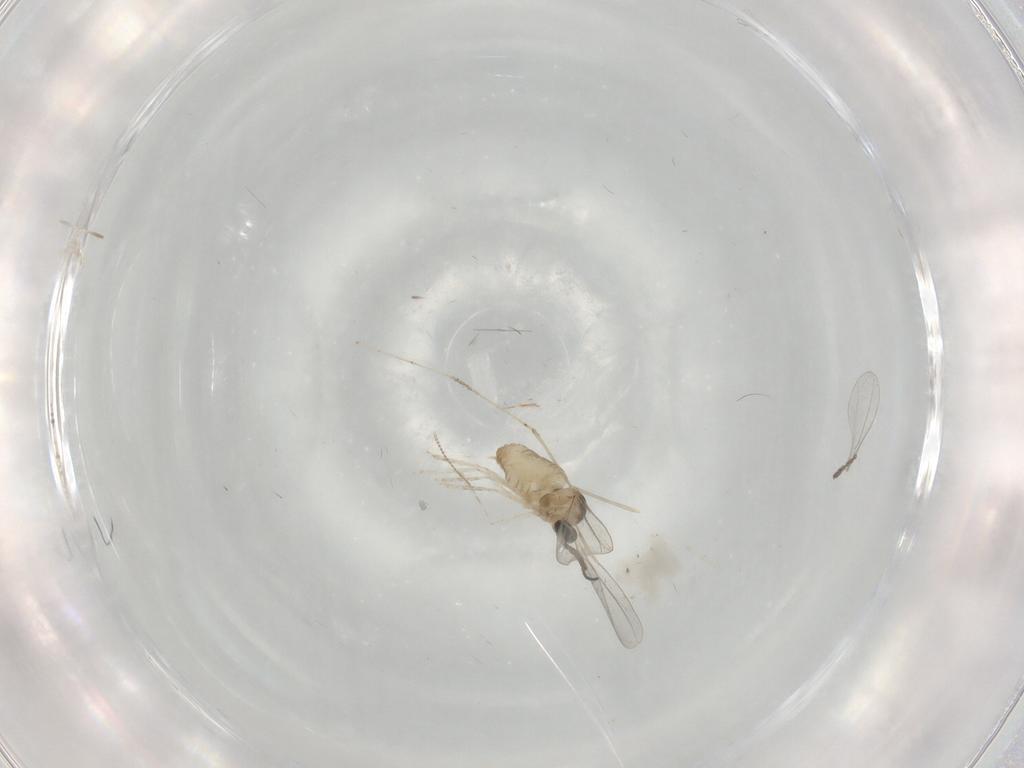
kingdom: Animalia
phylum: Arthropoda
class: Insecta
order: Diptera
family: Cecidomyiidae
